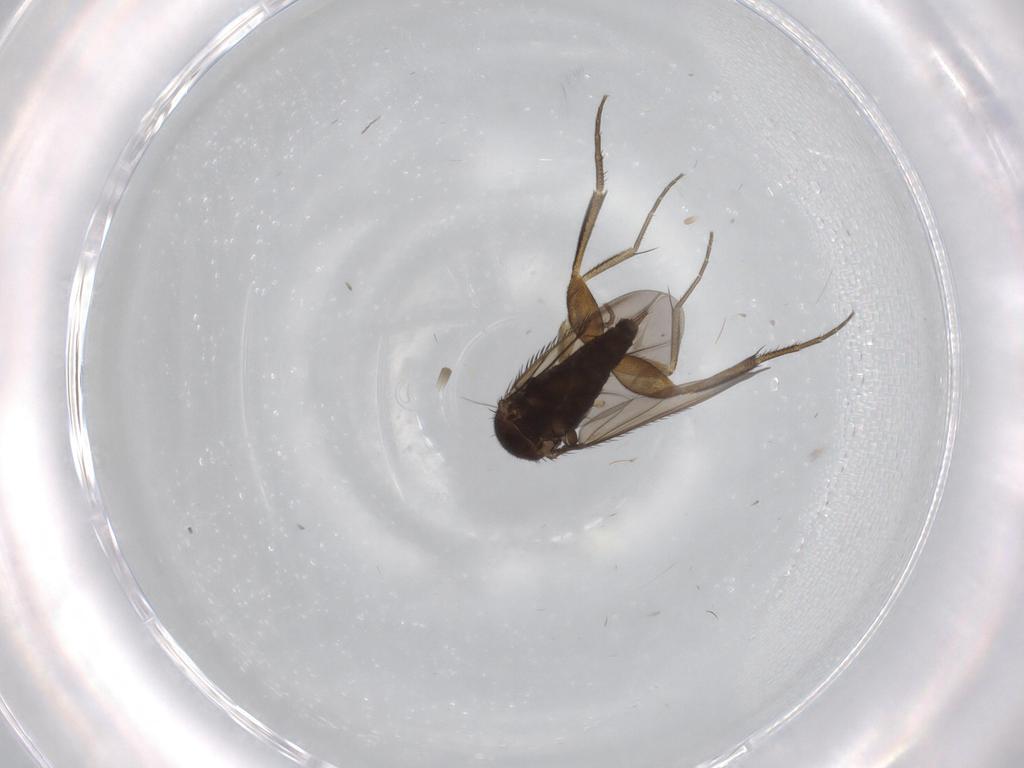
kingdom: Animalia
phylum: Arthropoda
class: Insecta
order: Diptera
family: Phoridae
